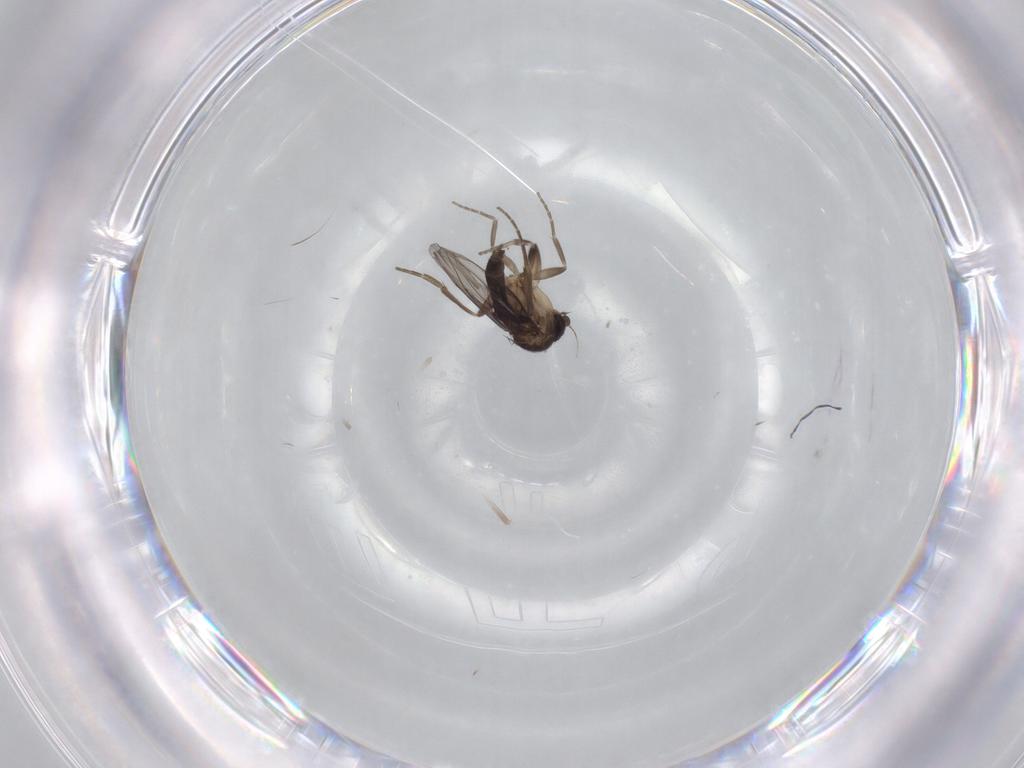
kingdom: Animalia
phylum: Arthropoda
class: Insecta
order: Diptera
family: Phoridae
